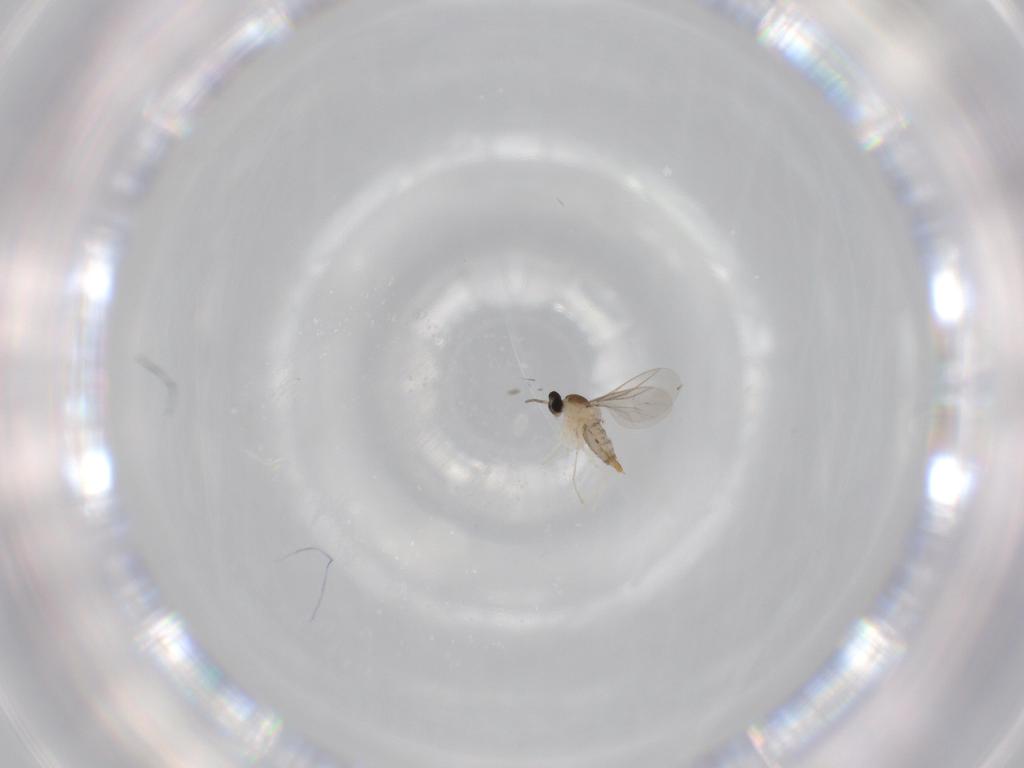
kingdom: Animalia
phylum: Arthropoda
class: Insecta
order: Diptera
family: Cecidomyiidae
